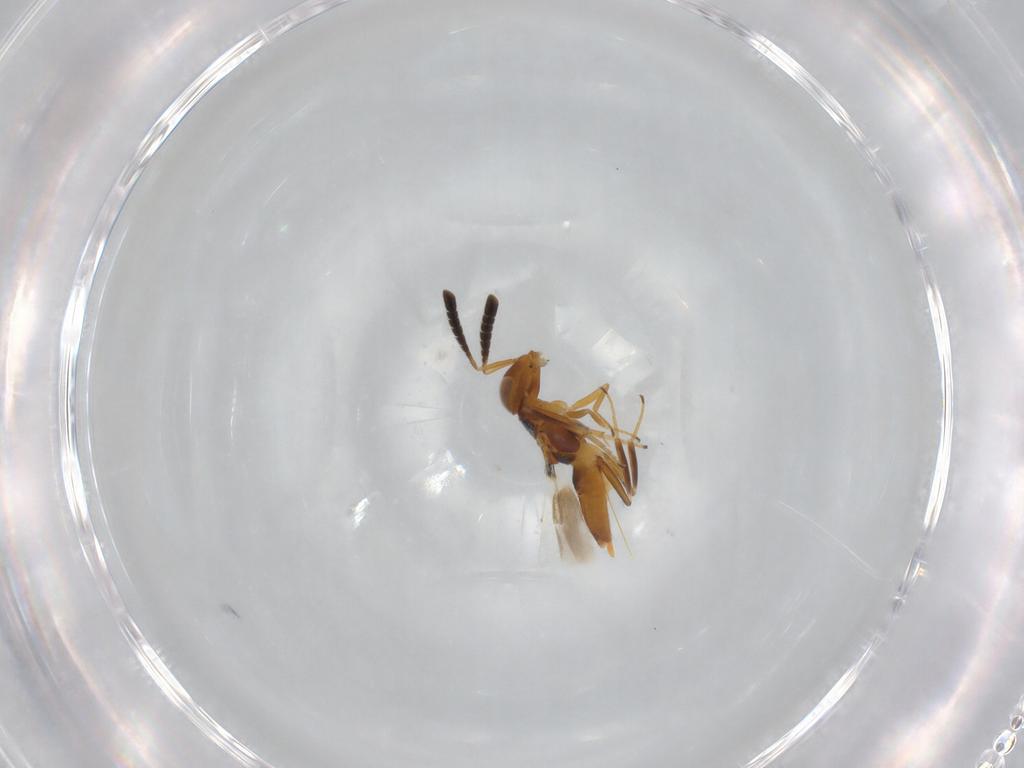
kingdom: Animalia
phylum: Arthropoda
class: Insecta
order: Hymenoptera
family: Encyrtidae
